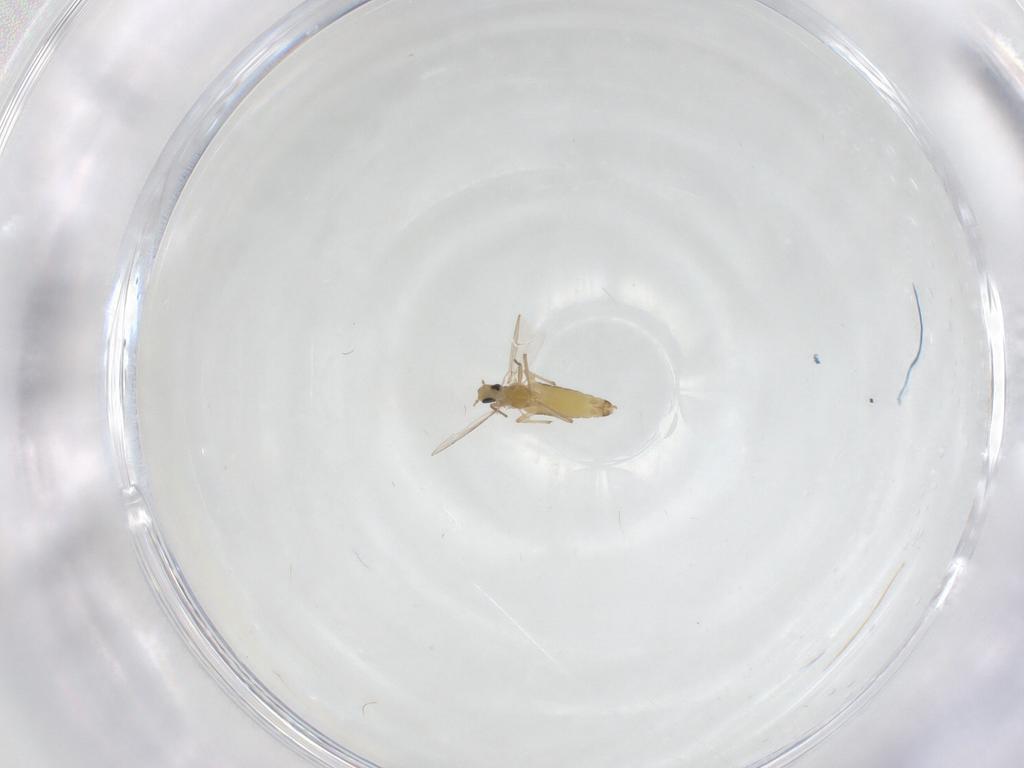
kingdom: Animalia
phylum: Arthropoda
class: Insecta
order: Diptera
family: Chironomidae
